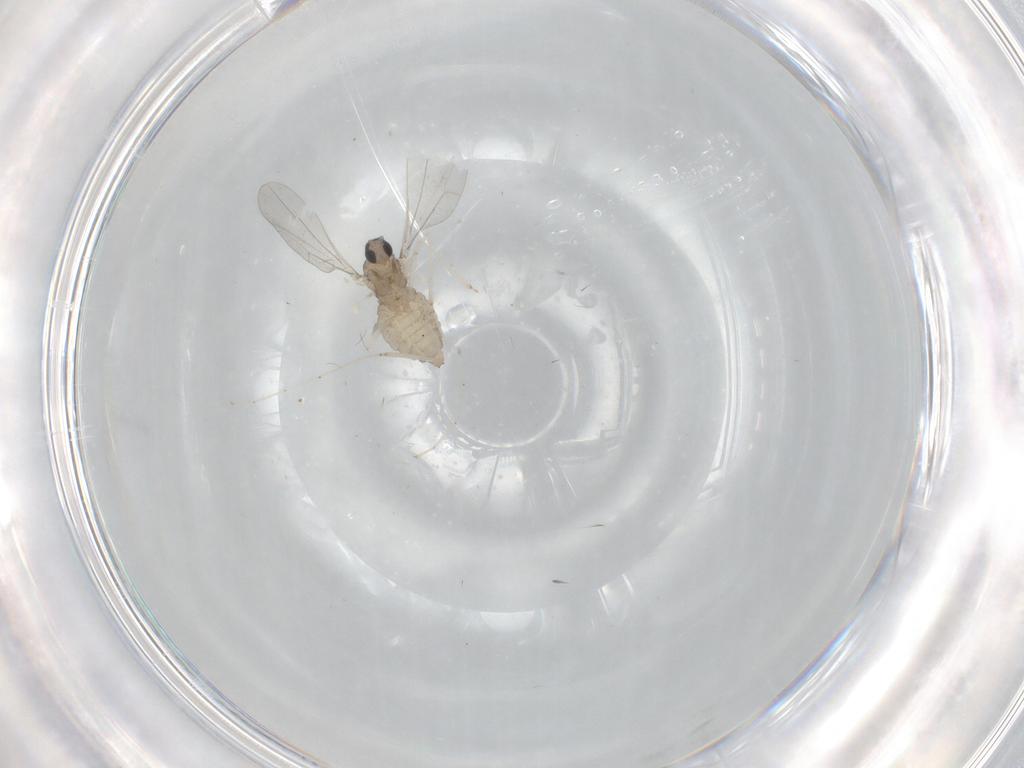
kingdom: Animalia
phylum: Arthropoda
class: Insecta
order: Diptera
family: Cecidomyiidae
